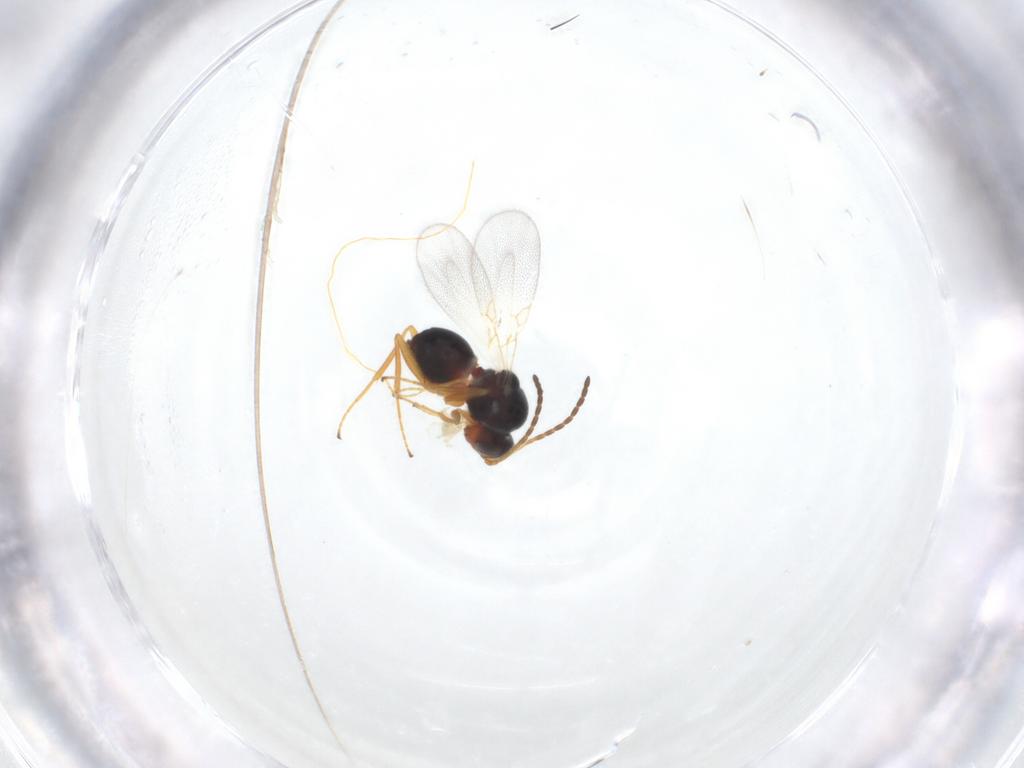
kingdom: Animalia
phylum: Arthropoda
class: Insecta
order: Hymenoptera
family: Figitidae
